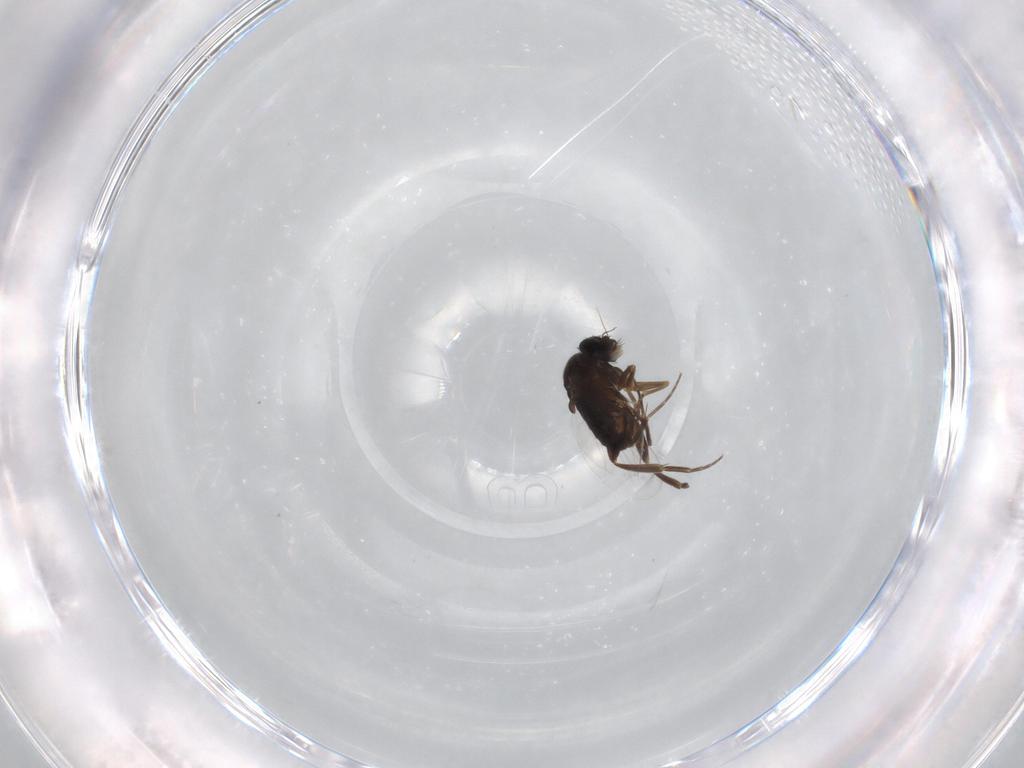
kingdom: Animalia
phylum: Arthropoda
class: Insecta
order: Diptera
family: Phoridae
